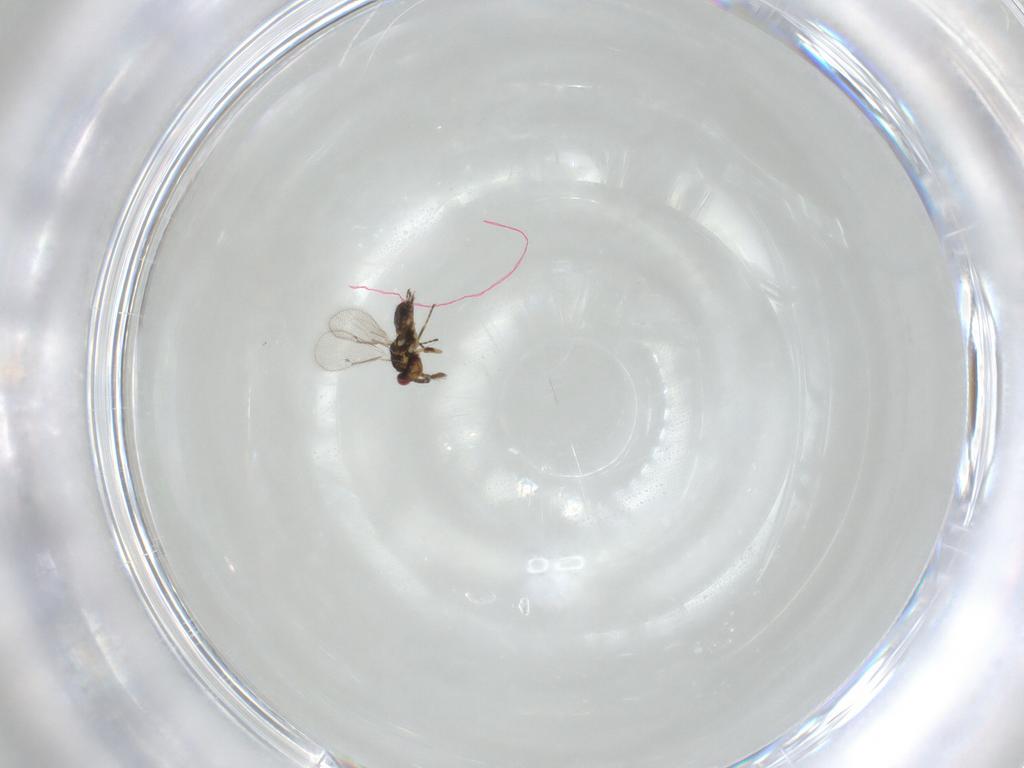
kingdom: Animalia
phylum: Arthropoda
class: Insecta
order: Hymenoptera
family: Eulophidae
